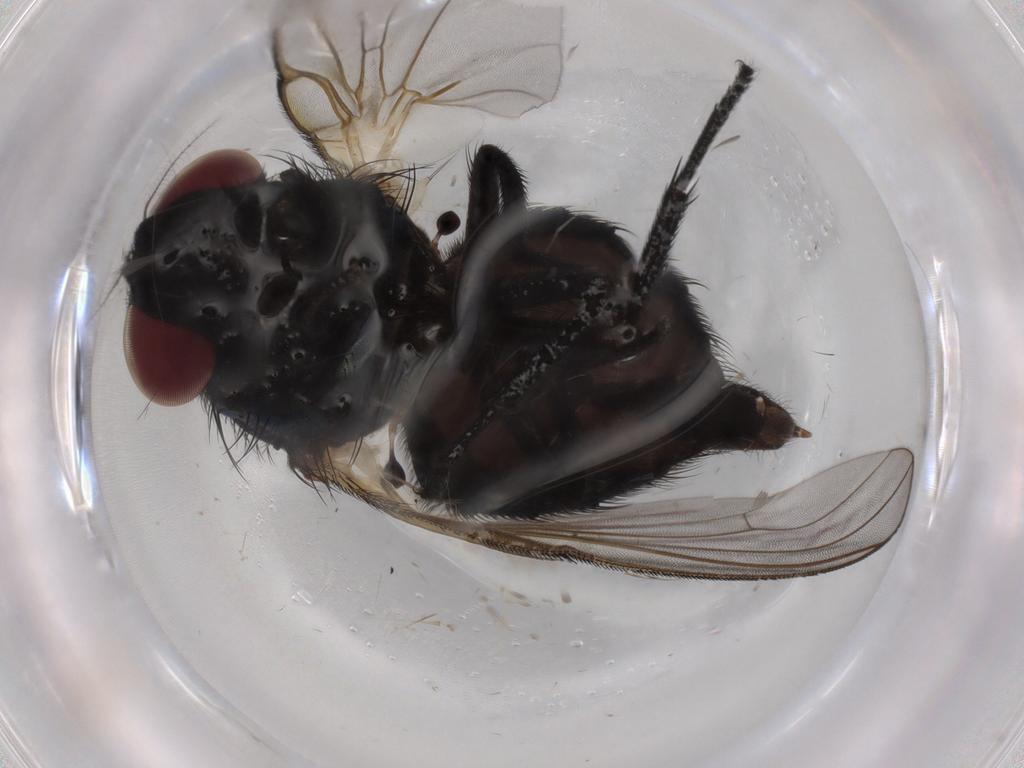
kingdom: Animalia
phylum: Arthropoda
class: Insecta
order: Diptera
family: Lonchaeidae
